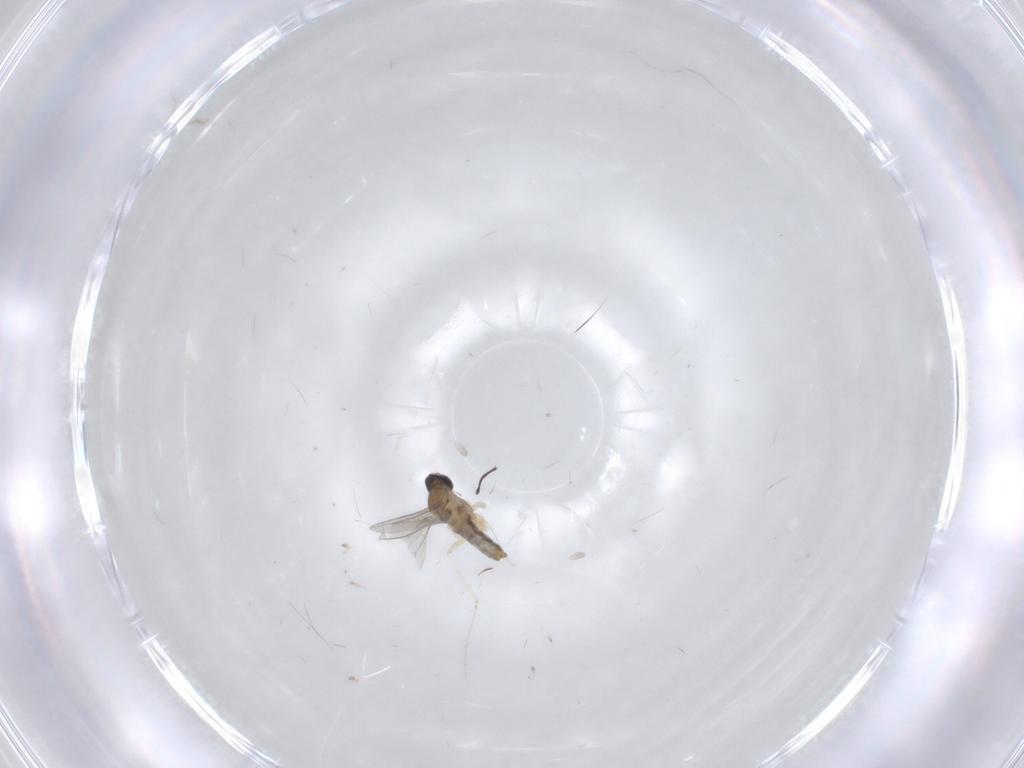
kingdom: Animalia
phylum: Arthropoda
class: Insecta
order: Diptera
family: Cecidomyiidae
